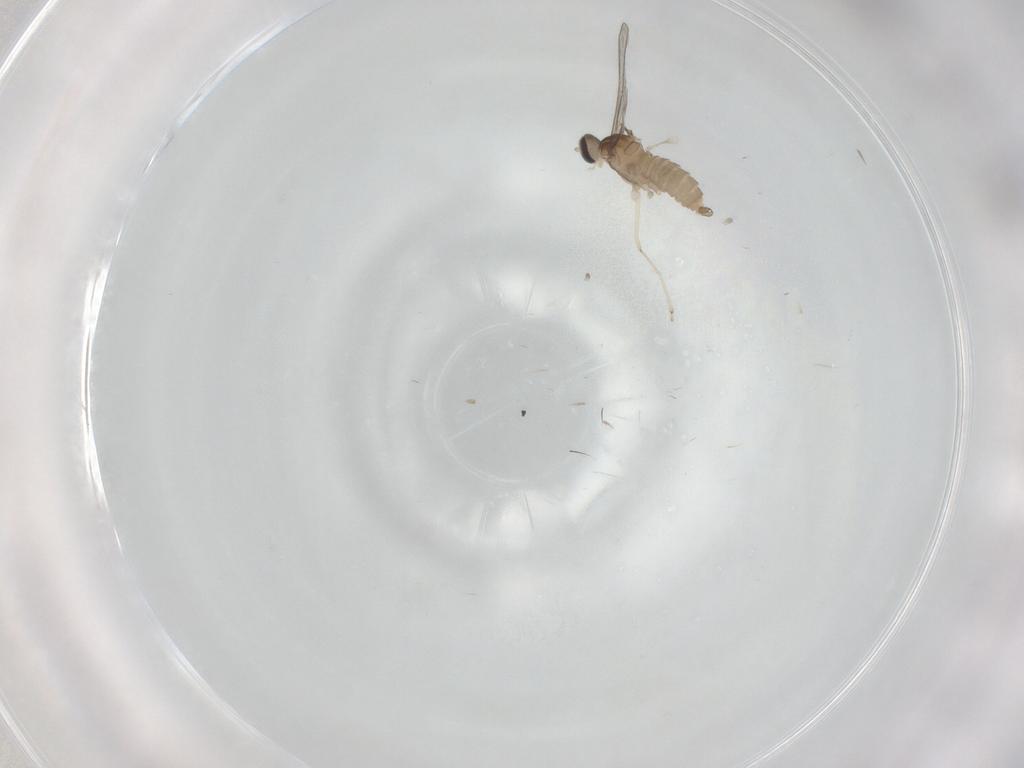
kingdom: Animalia
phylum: Arthropoda
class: Insecta
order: Diptera
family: Cecidomyiidae
